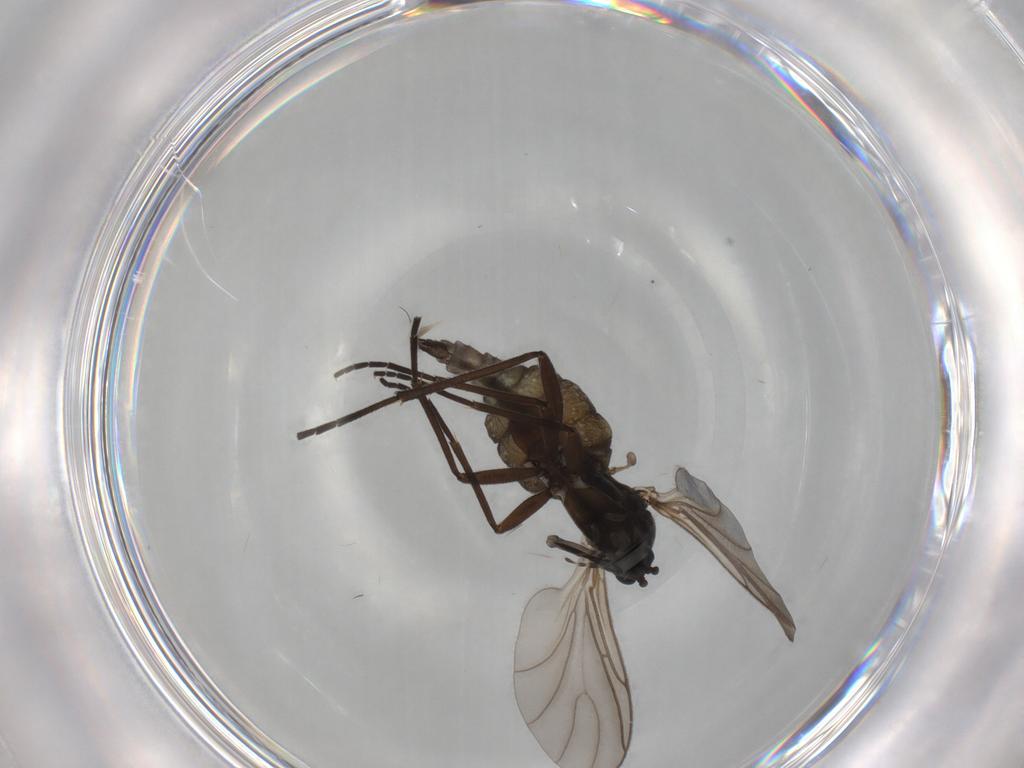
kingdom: Animalia
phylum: Arthropoda
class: Insecta
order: Diptera
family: Sciaridae
